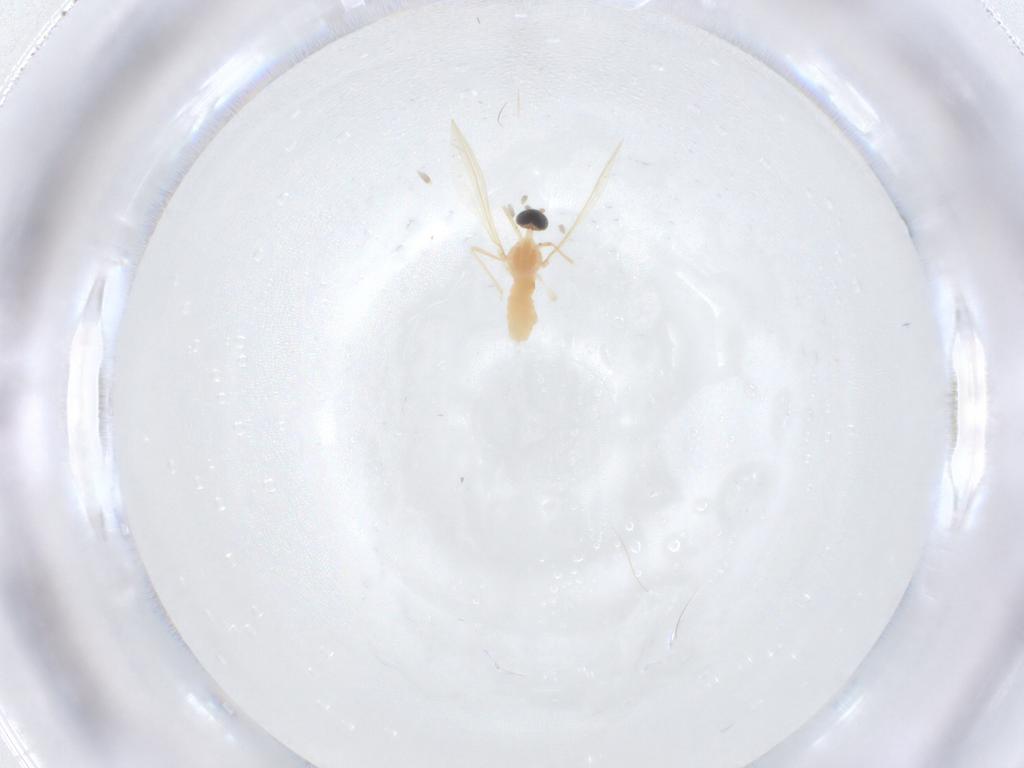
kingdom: Animalia
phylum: Arthropoda
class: Insecta
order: Diptera
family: Cecidomyiidae
